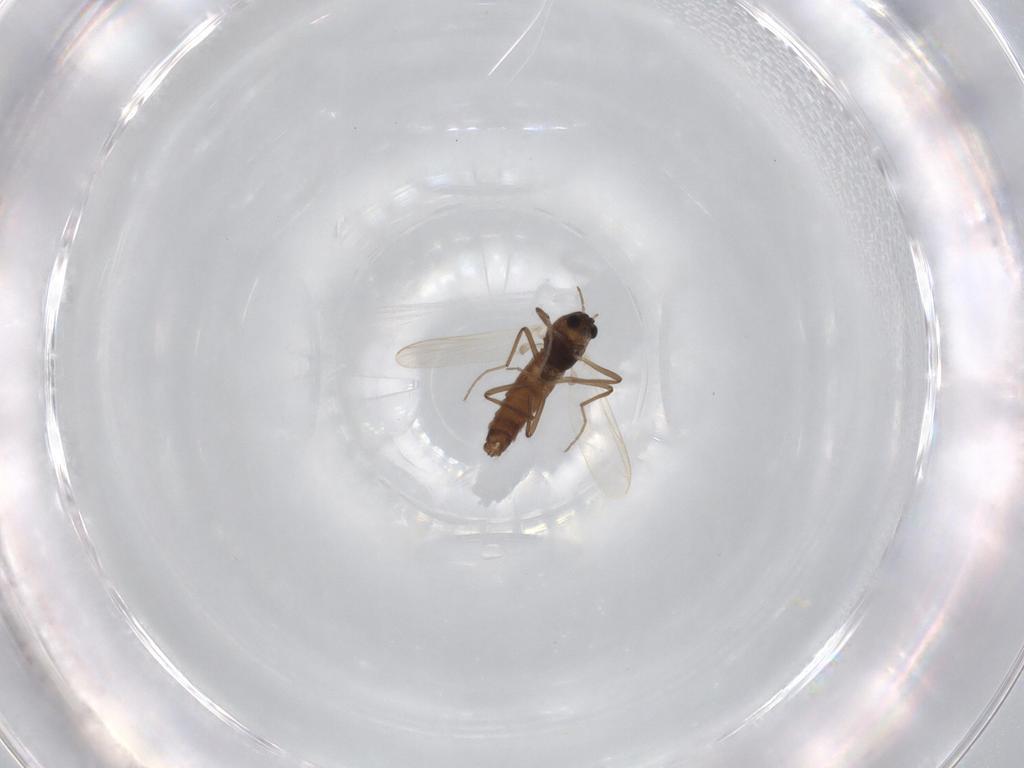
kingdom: Animalia
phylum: Arthropoda
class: Insecta
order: Diptera
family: Chironomidae
